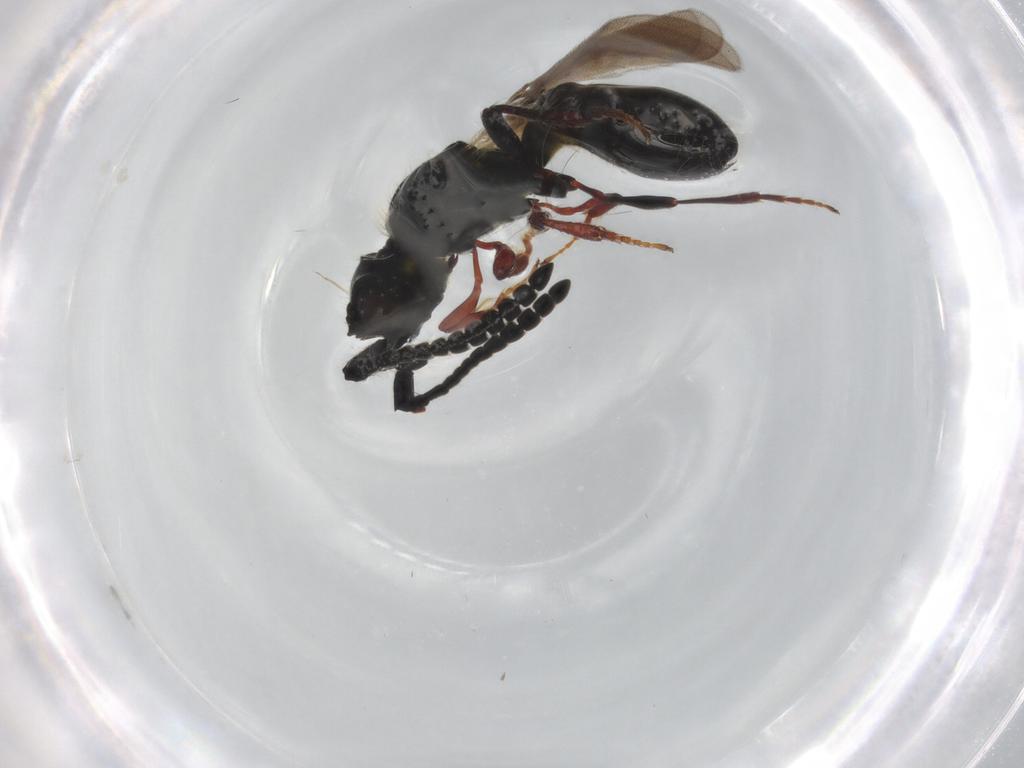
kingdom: Animalia
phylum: Arthropoda
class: Insecta
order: Hymenoptera
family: Diapriidae
